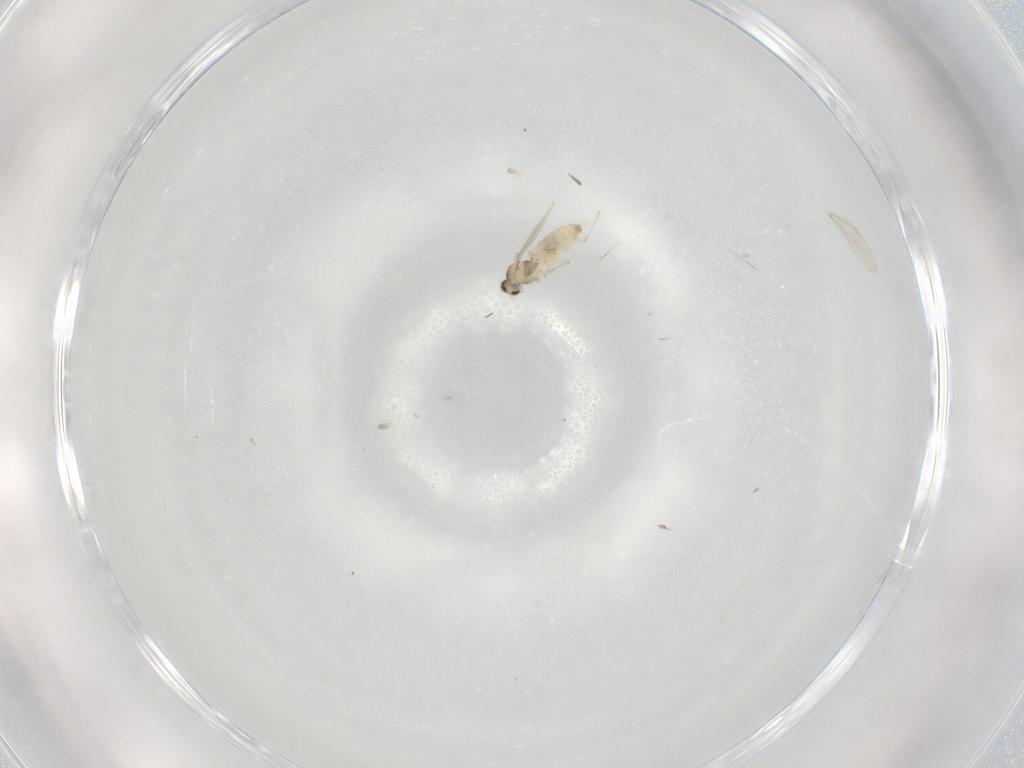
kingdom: Animalia
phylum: Arthropoda
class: Insecta
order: Diptera
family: Cecidomyiidae
